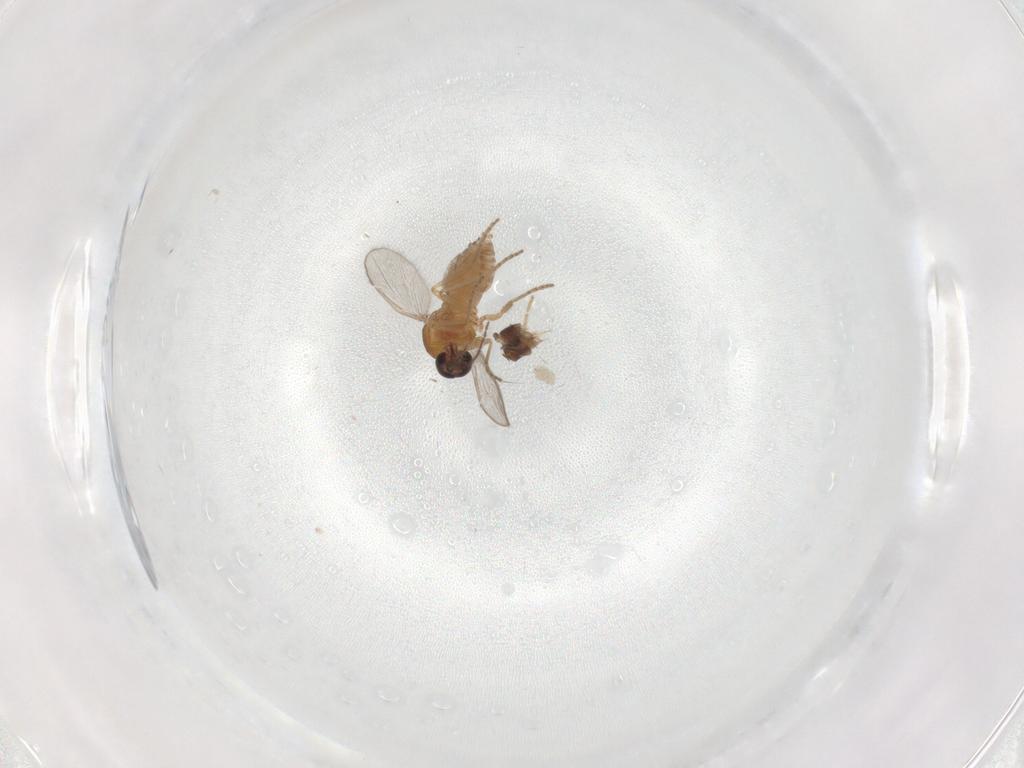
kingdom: Animalia
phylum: Arthropoda
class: Insecta
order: Diptera
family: Ceratopogonidae
